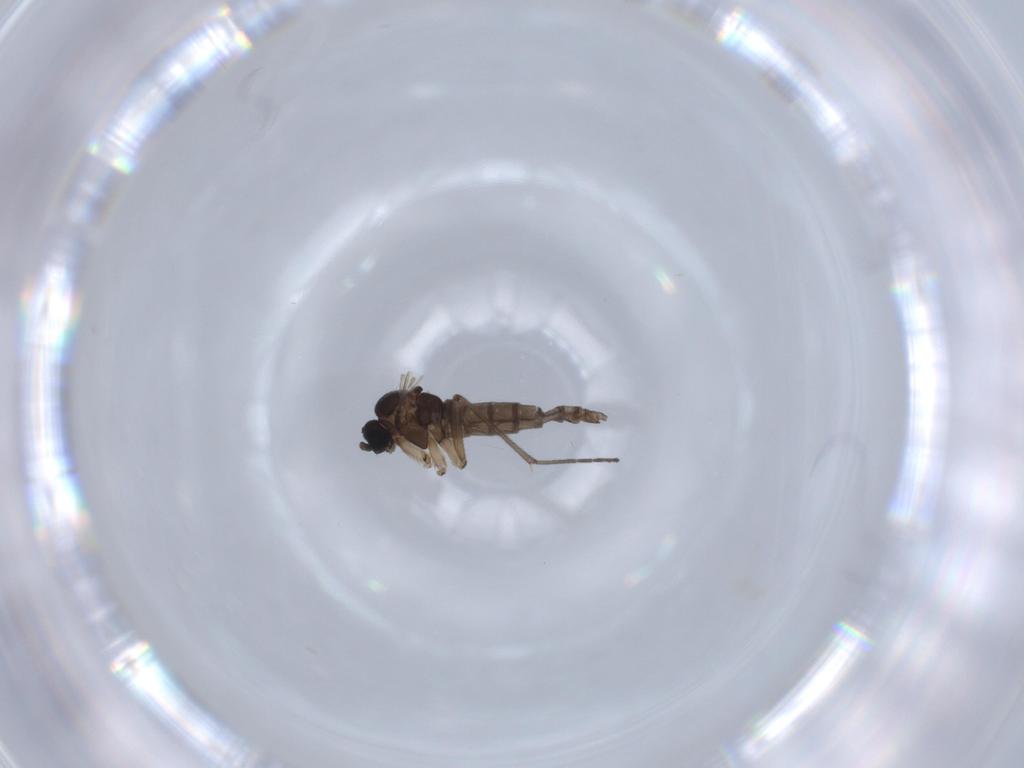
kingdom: Animalia
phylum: Arthropoda
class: Insecta
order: Diptera
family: Sciaridae
